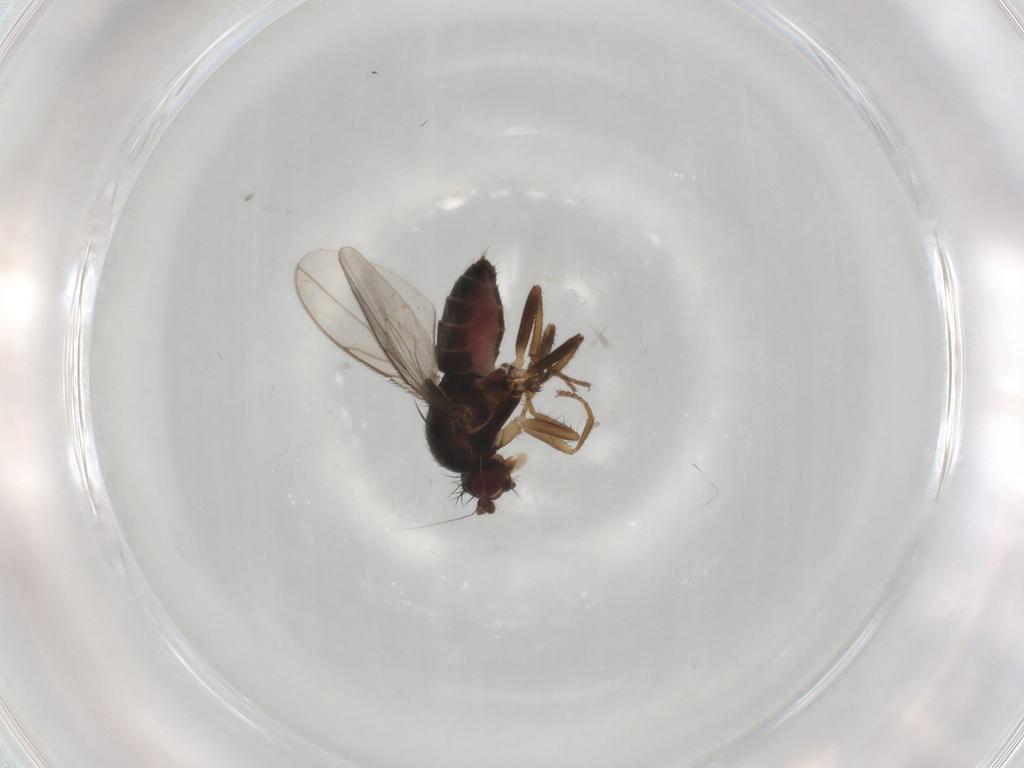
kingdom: Animalia
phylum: Arthropoda
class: Insecta
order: Diptera
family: Sphaeroceridae
